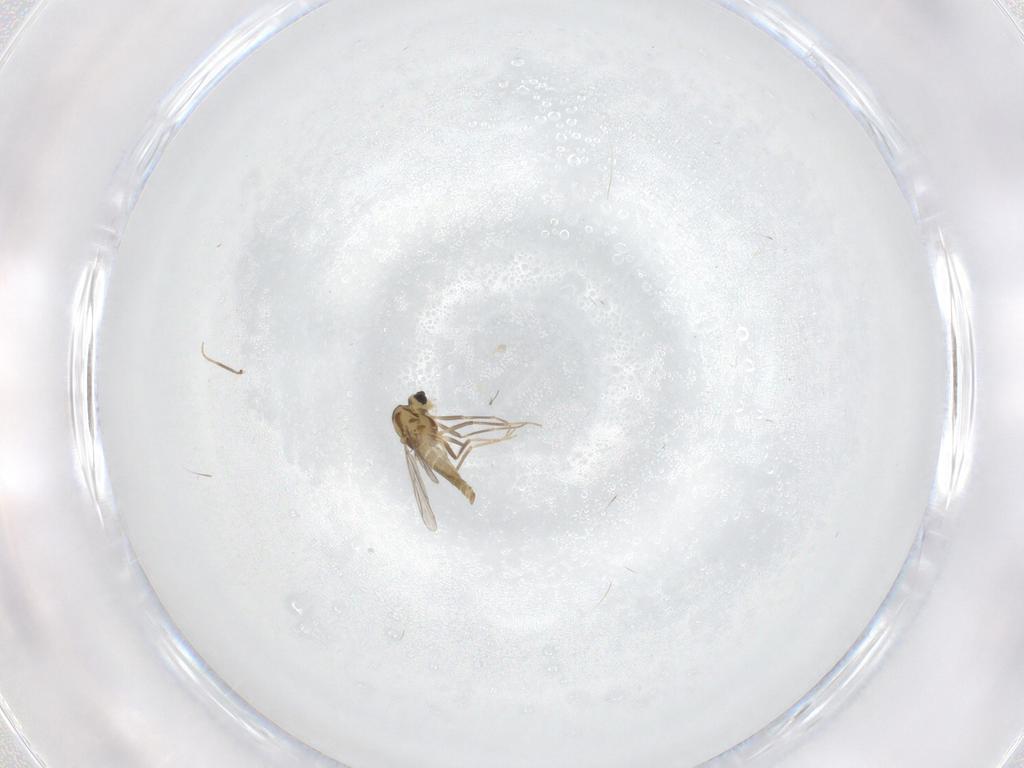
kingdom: Animalia
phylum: Arthropoda
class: Insecta
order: Diptera
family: Chironomidae
